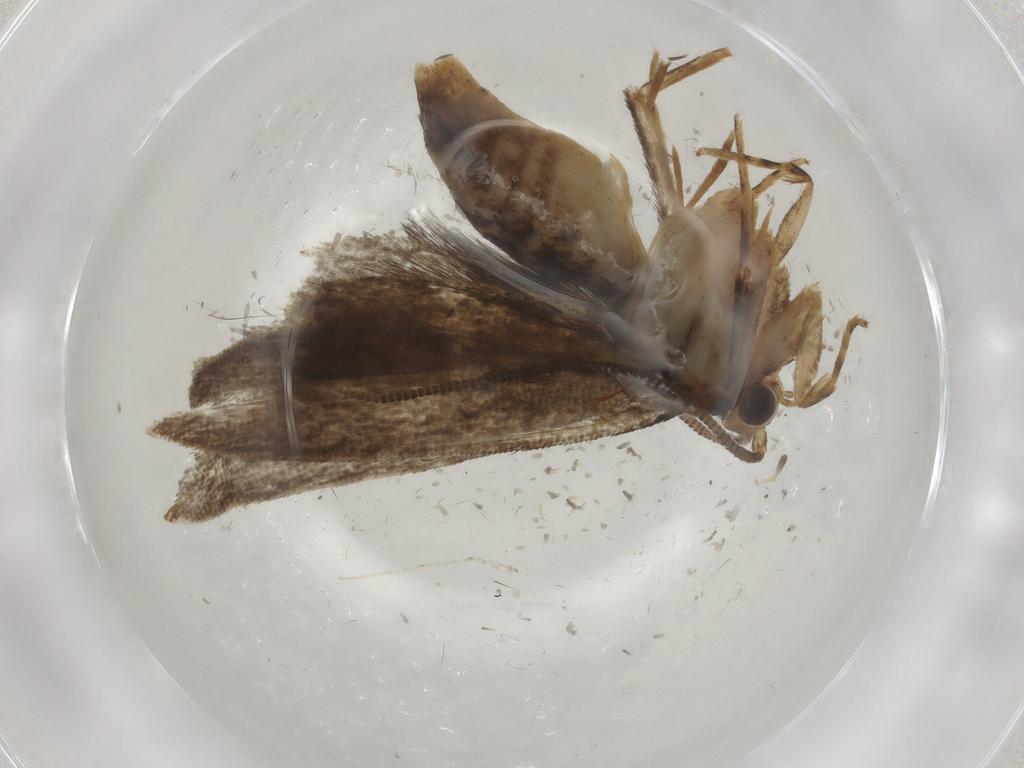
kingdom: Animalia
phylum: Arthropoda
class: Insecta
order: Lepidoptera
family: Tineidae
